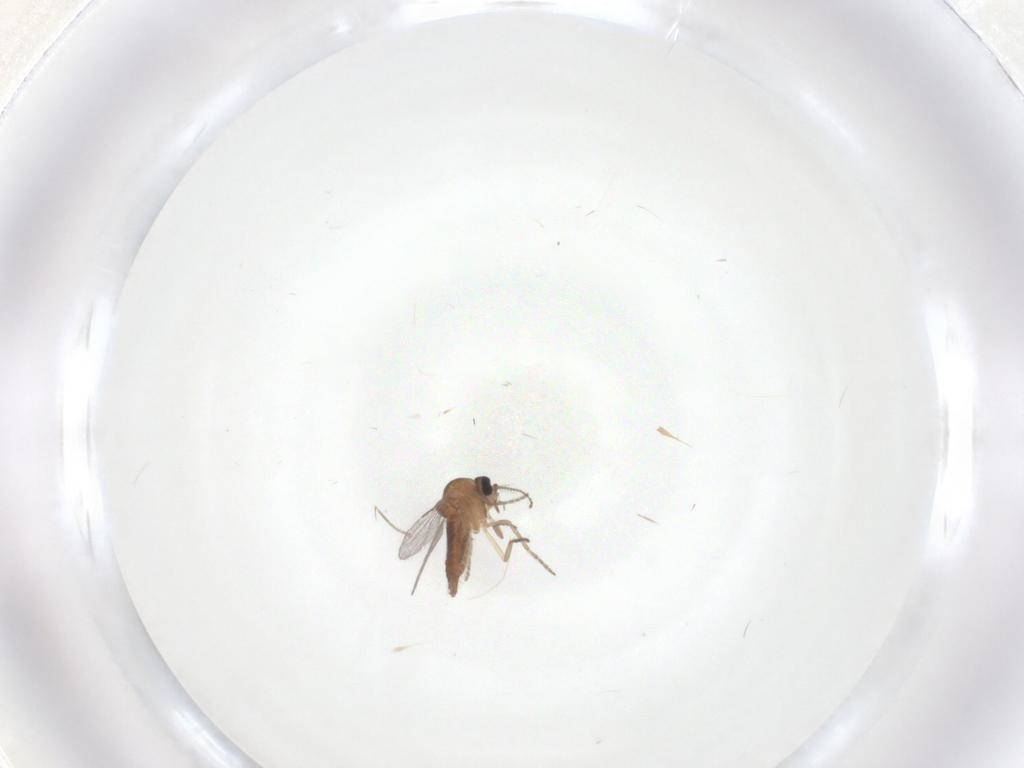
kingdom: Animalia
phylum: Arthropoda
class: Insecta
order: Diptera
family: Ceratopogonidae
